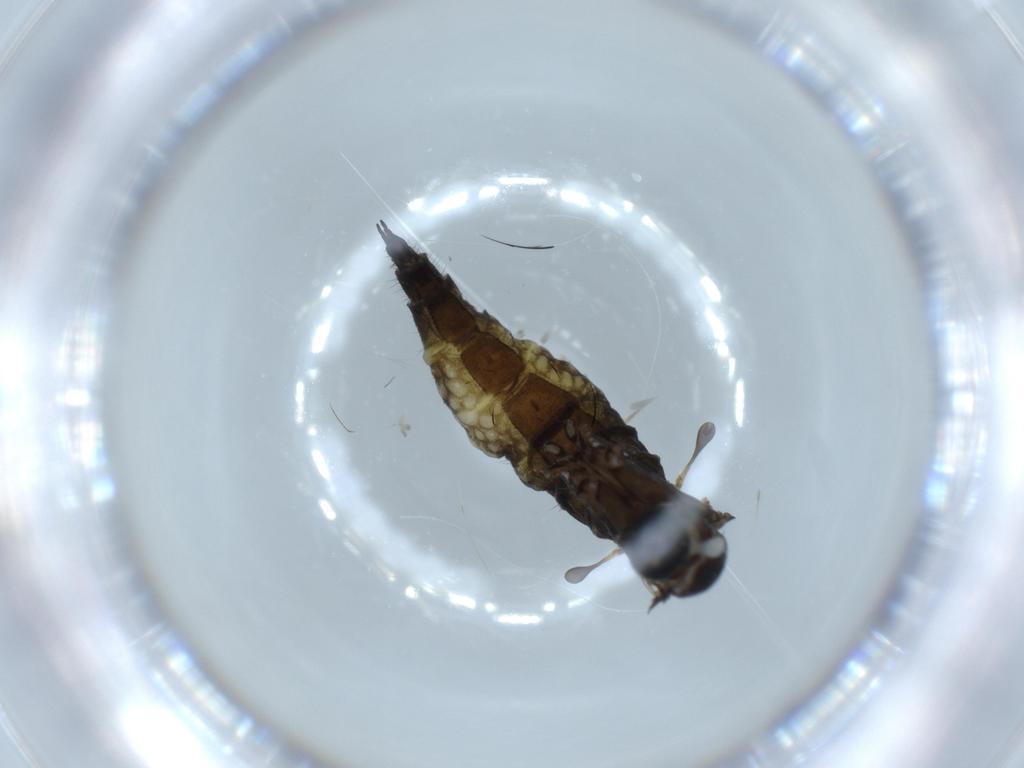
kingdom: Animalia
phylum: Arthropoda
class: Insecta
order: Diptera
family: Sciaridae
